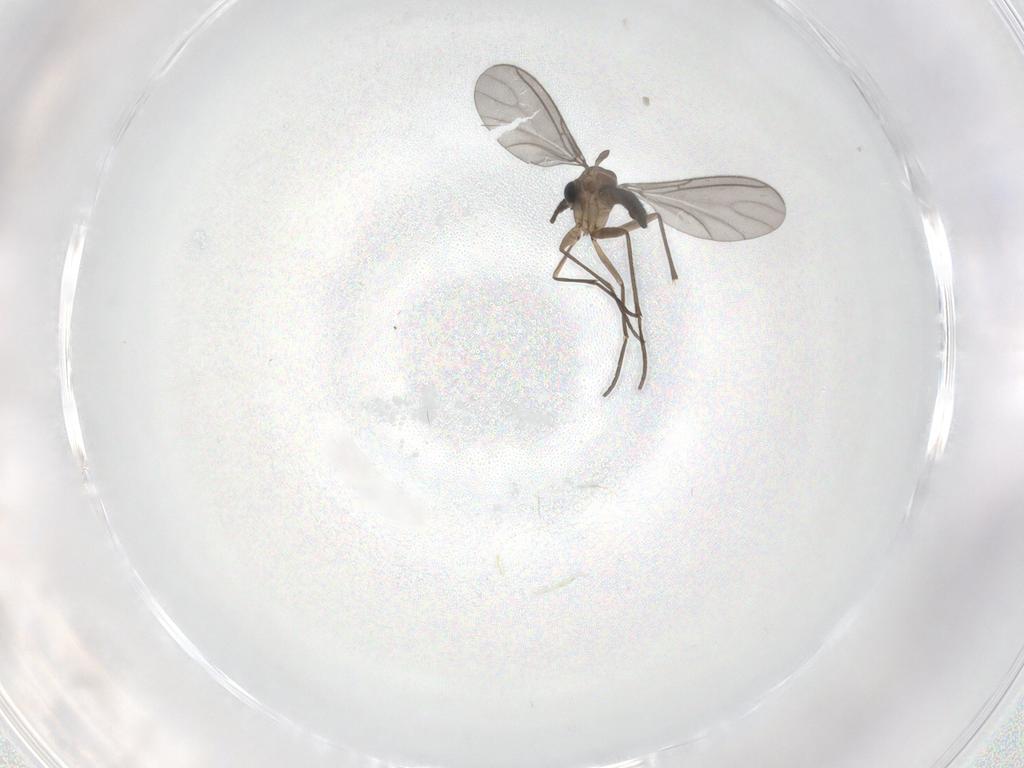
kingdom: Animalia
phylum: Arthropoda
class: Insecta
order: Diptera
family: Sciaridae
